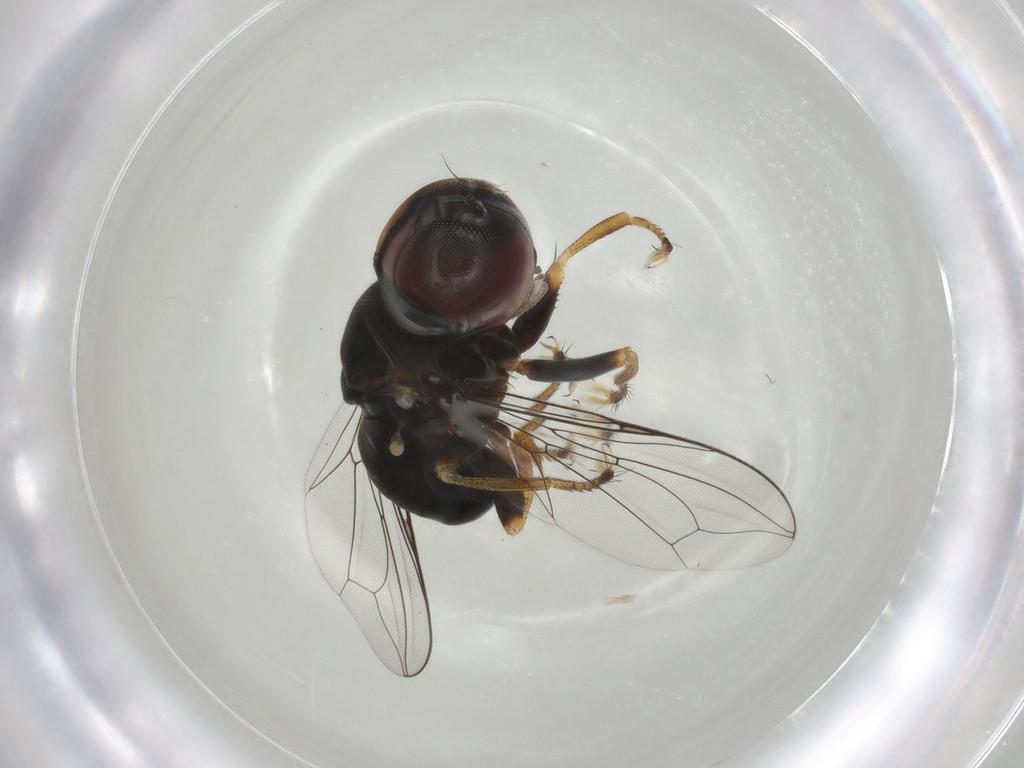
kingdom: Animalia
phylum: Arthropoda
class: Insecta
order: Diptera
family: Pipunculidae
